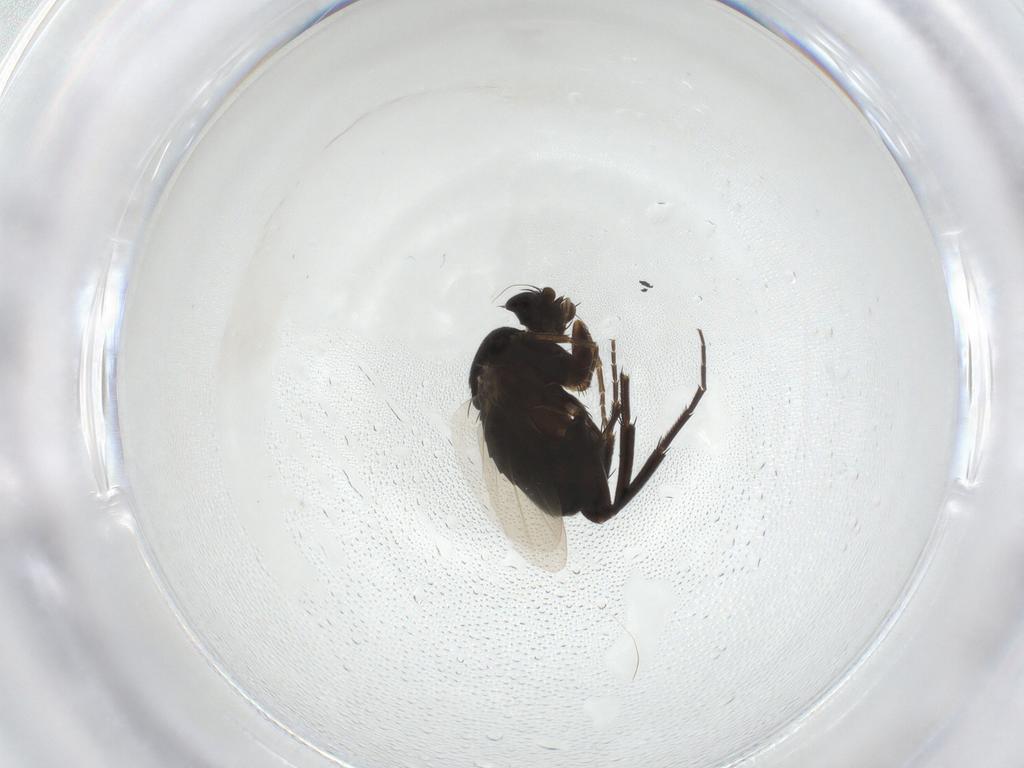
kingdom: Animalia
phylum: Arthropoda
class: Insecta
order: Diptera
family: Phoridae
